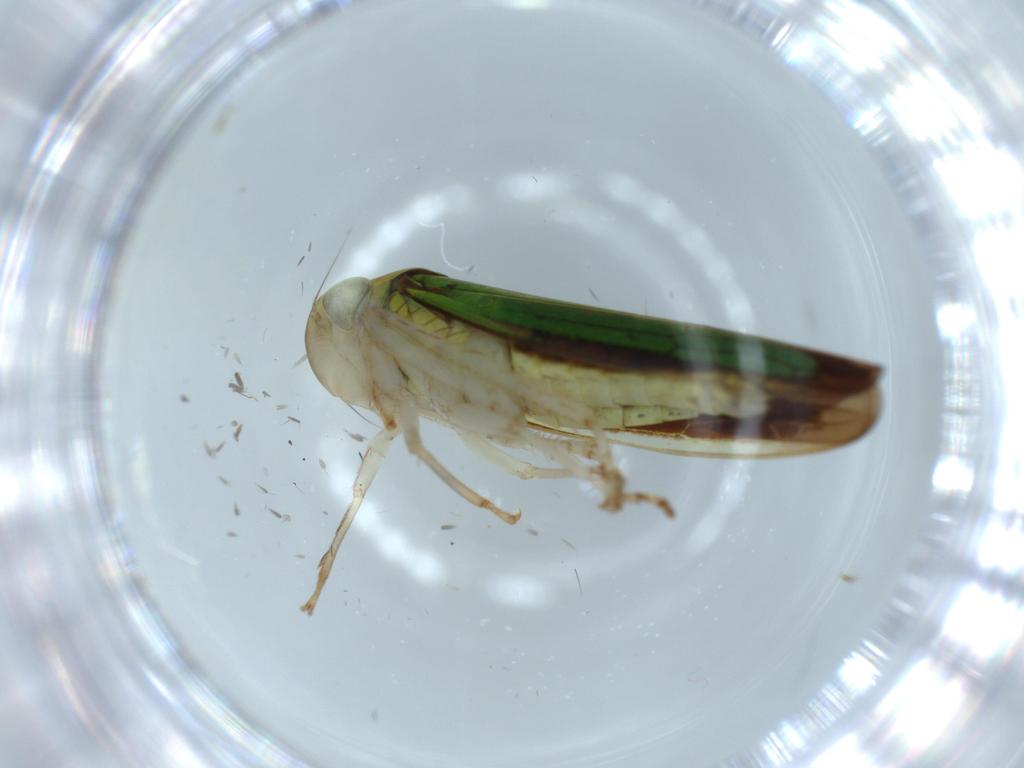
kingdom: Animalia
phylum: Arthropoda
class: Insecta
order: Hemiptera
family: Cicadellidae
